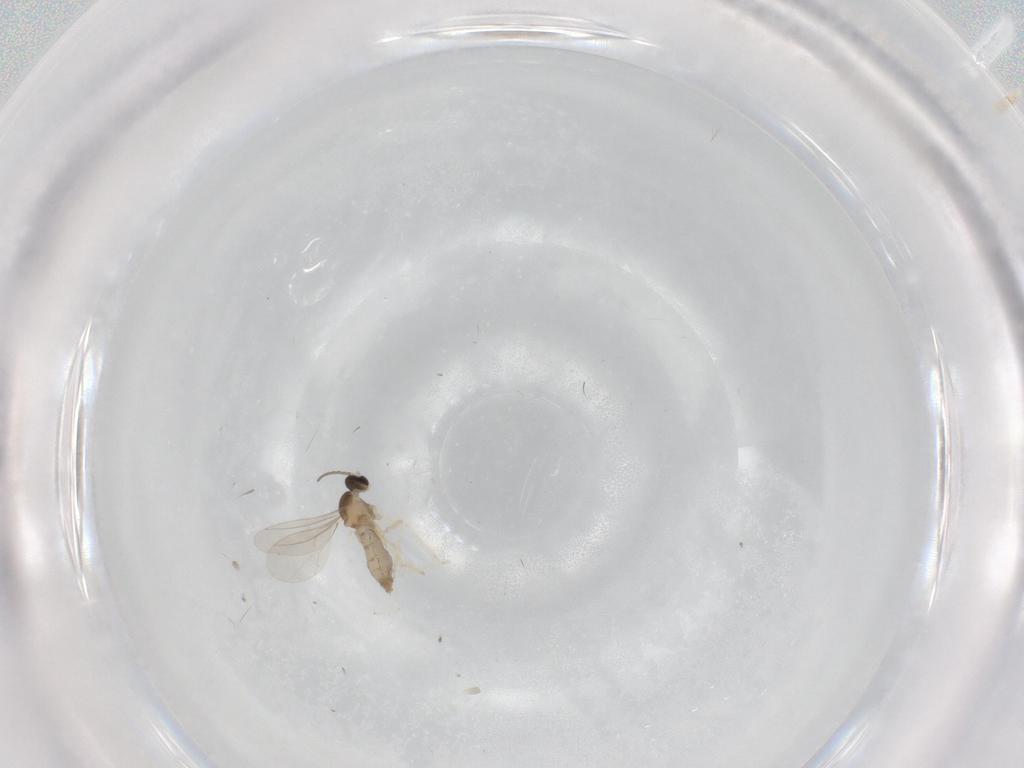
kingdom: Animalia
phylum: Arthropoda
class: Insecta
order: Diptera
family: Cecidomyiidae
